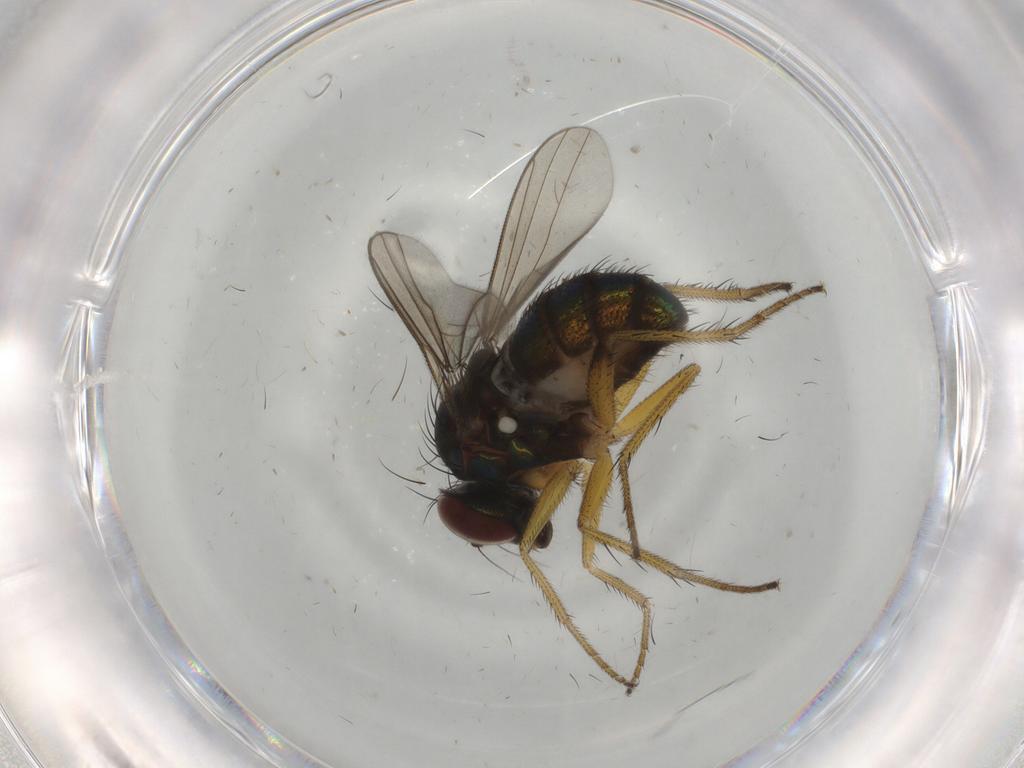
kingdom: Animalia
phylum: Arthropoda
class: Insecta
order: Diptera
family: Dolichopodidae
